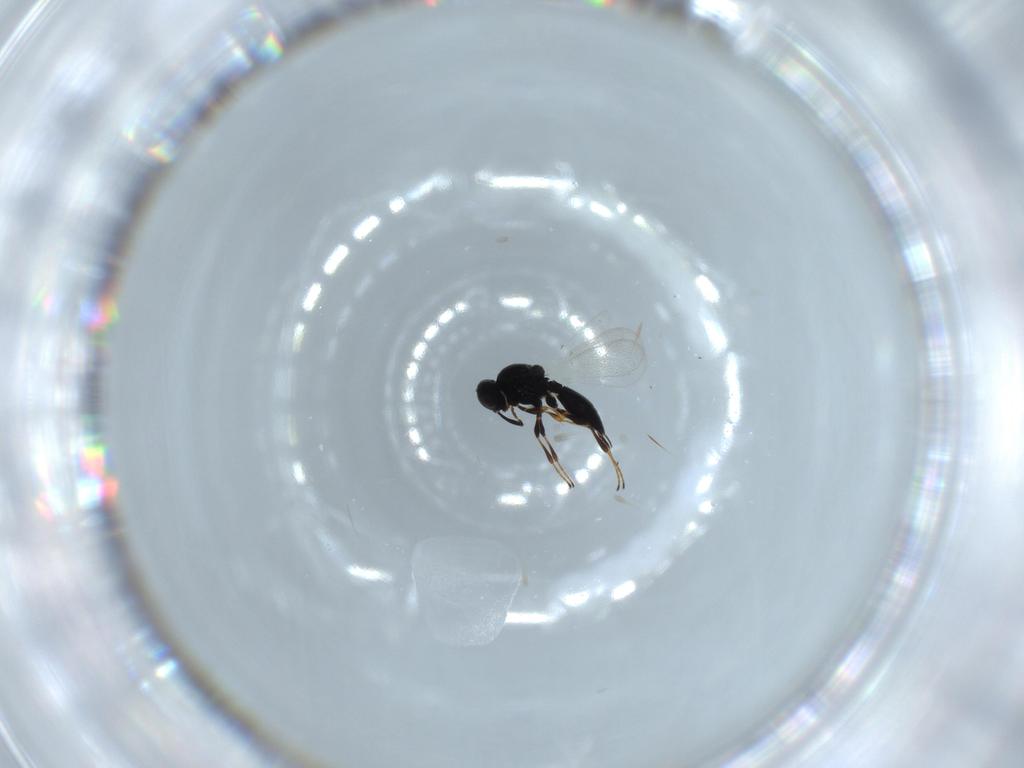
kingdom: Animalia
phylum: Arthropoda
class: Insecta
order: Hymenoptera
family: Platygastridae
